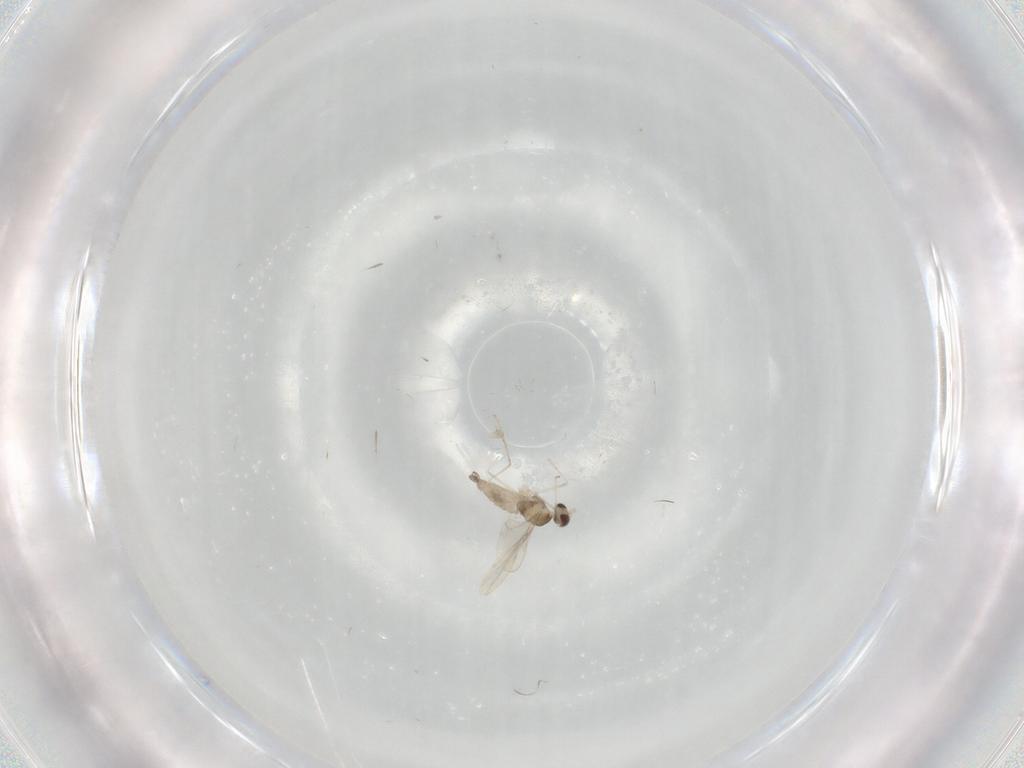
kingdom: Animalia
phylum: Arthropoda
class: Insecta
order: Diptera
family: Cecidomyiidae
